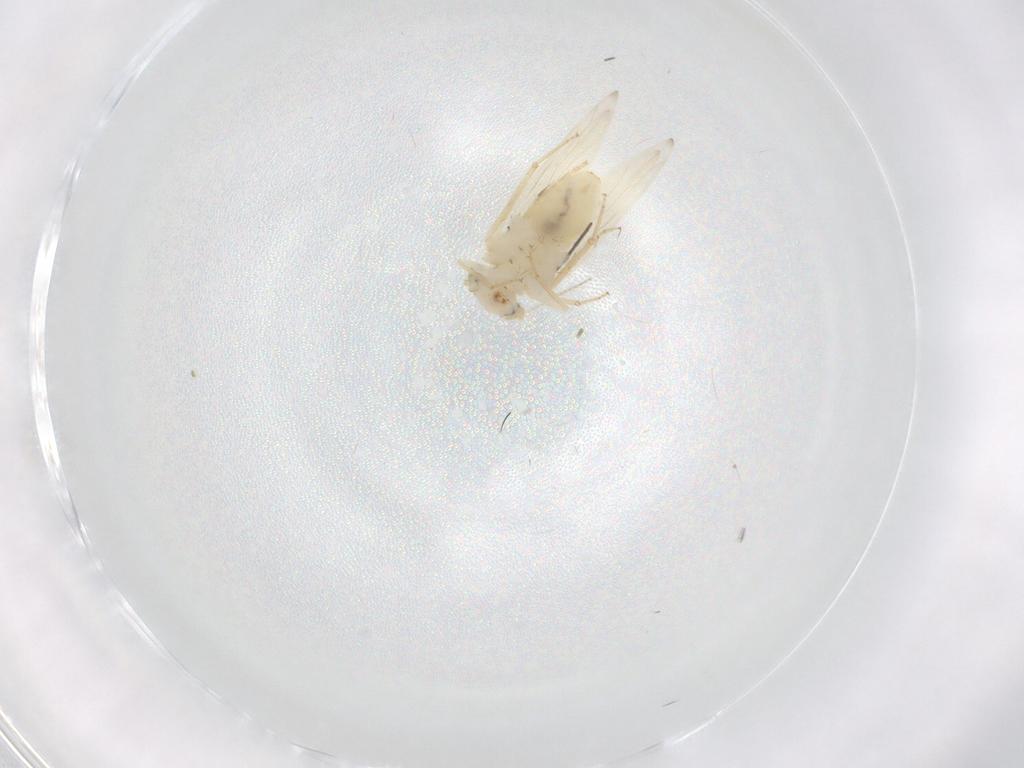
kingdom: Animalia
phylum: Arthropoda
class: Insecta
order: Psocodea
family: Lepidopsocidae
